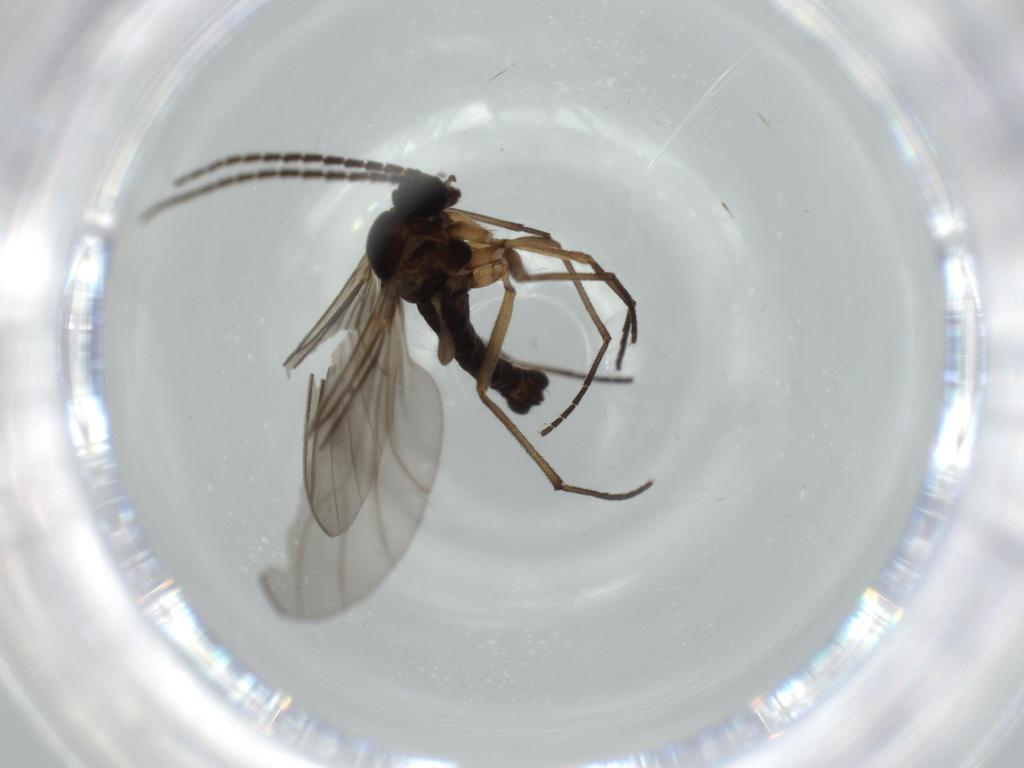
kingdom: Animalia
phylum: Arthropoda
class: Insecta
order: Diptera
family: Sciaridae
